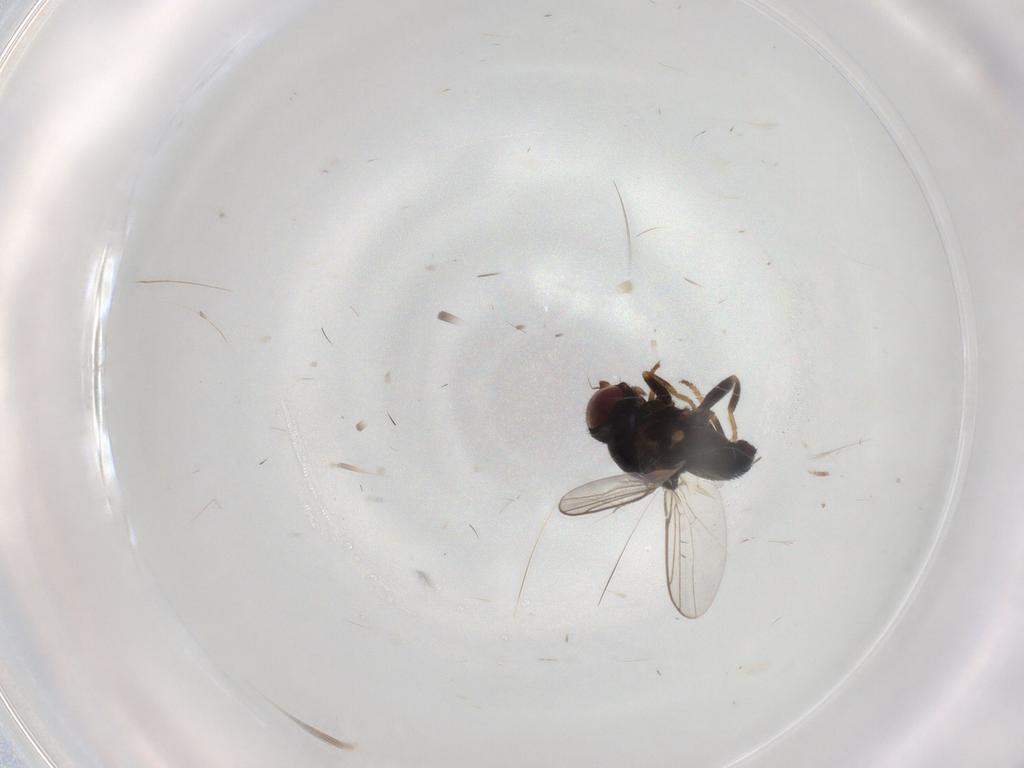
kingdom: Animalia
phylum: Arthropoda
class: Insecta
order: Diptera
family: Chloropidae
